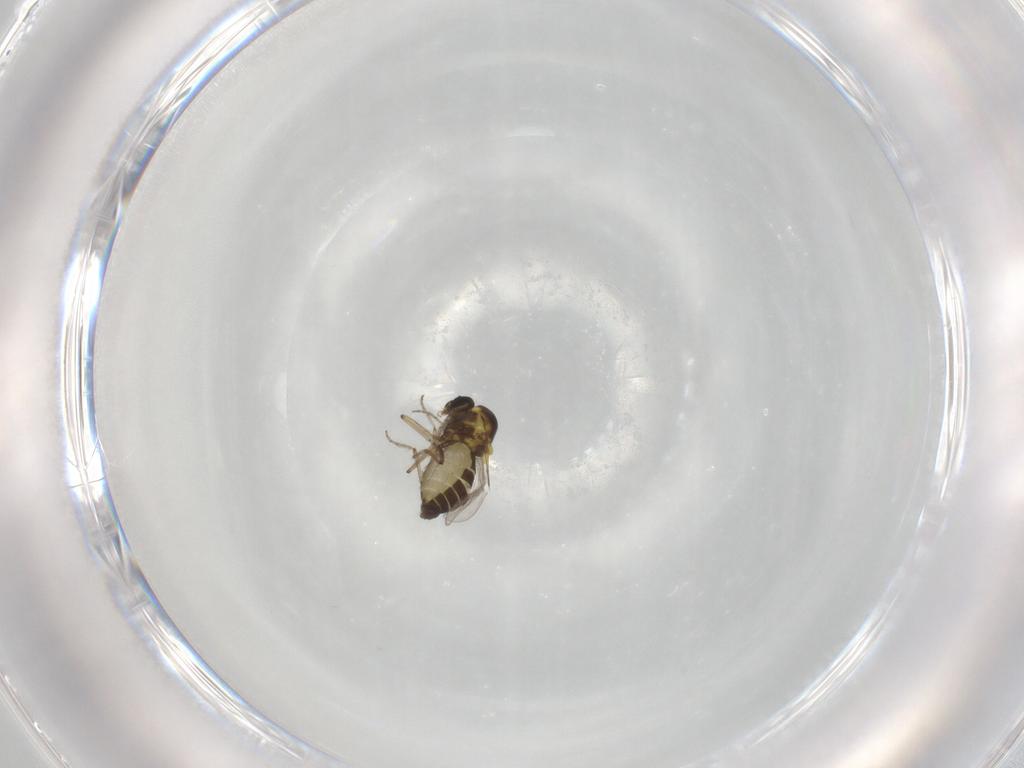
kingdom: Animalia
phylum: Arthropoda
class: Insecta
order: Diptera
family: Ceratopogonidae
